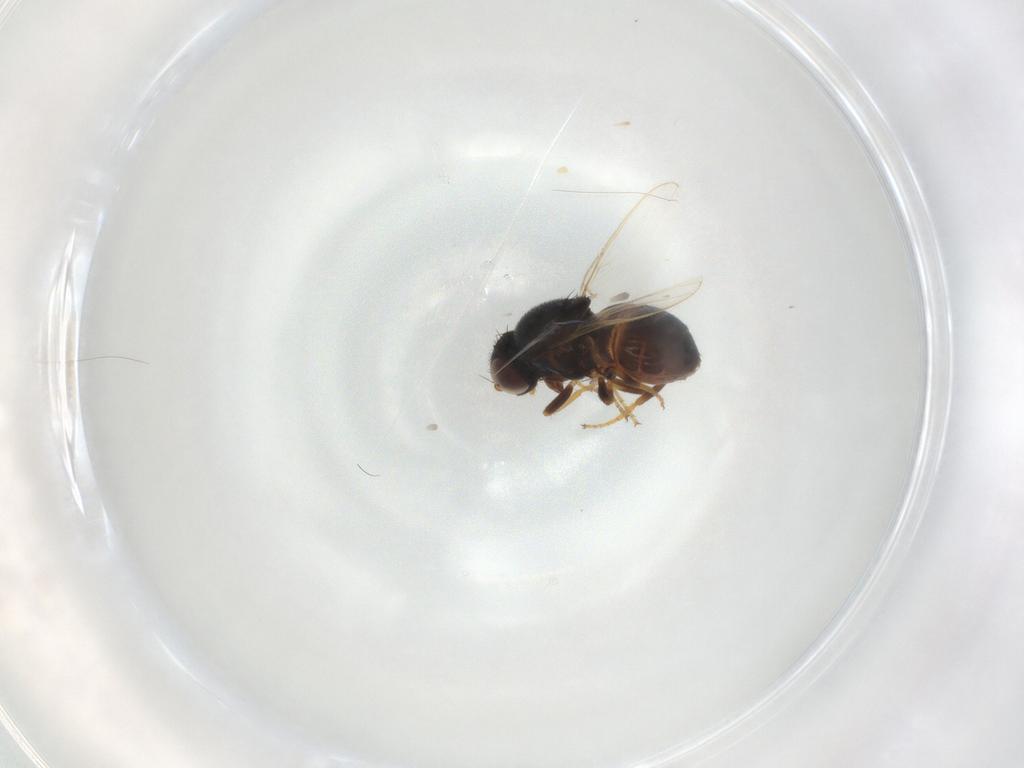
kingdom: Animalia
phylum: Arthropoda
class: Insecta
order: Diptera
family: Chloropidae
